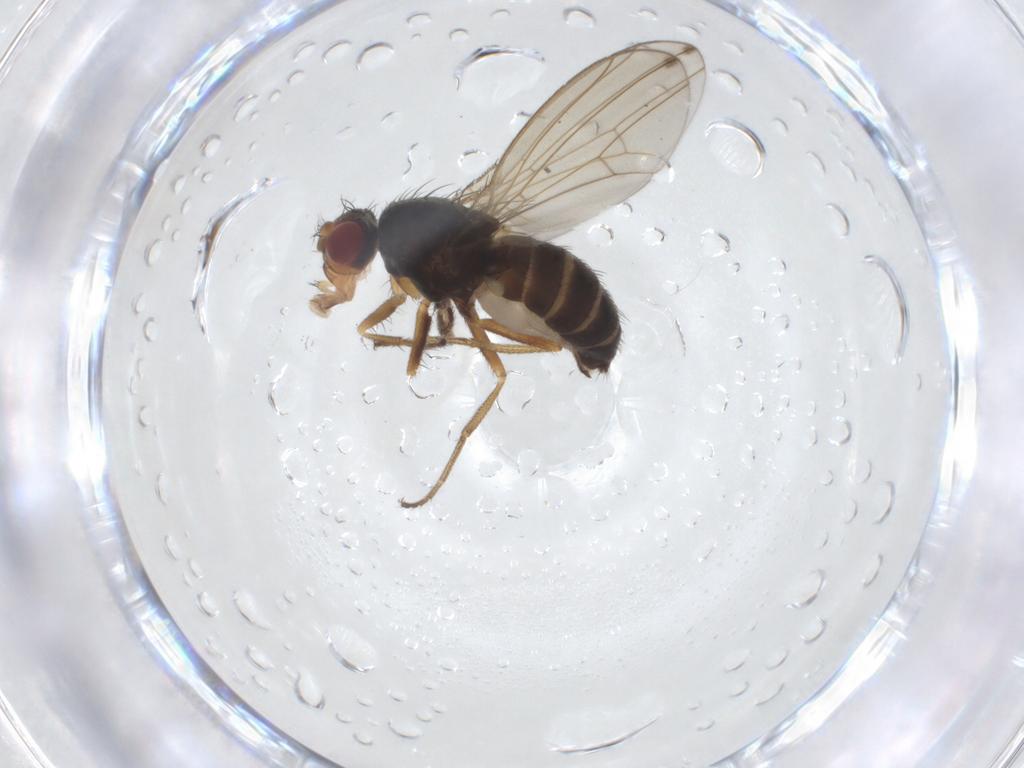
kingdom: Animalia
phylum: Arthropoda
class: Insecta
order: Diptera
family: Drosophilidae
